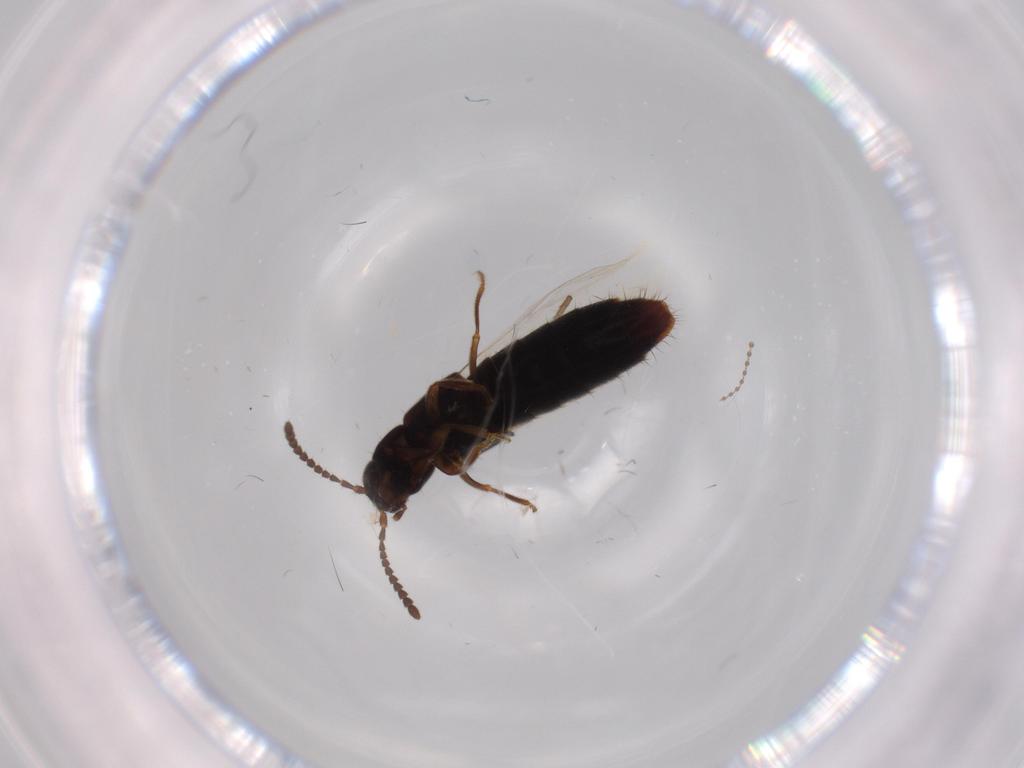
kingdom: Animalia
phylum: Arthropoda
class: Insecta
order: Coleoptera
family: Staphylinidae
